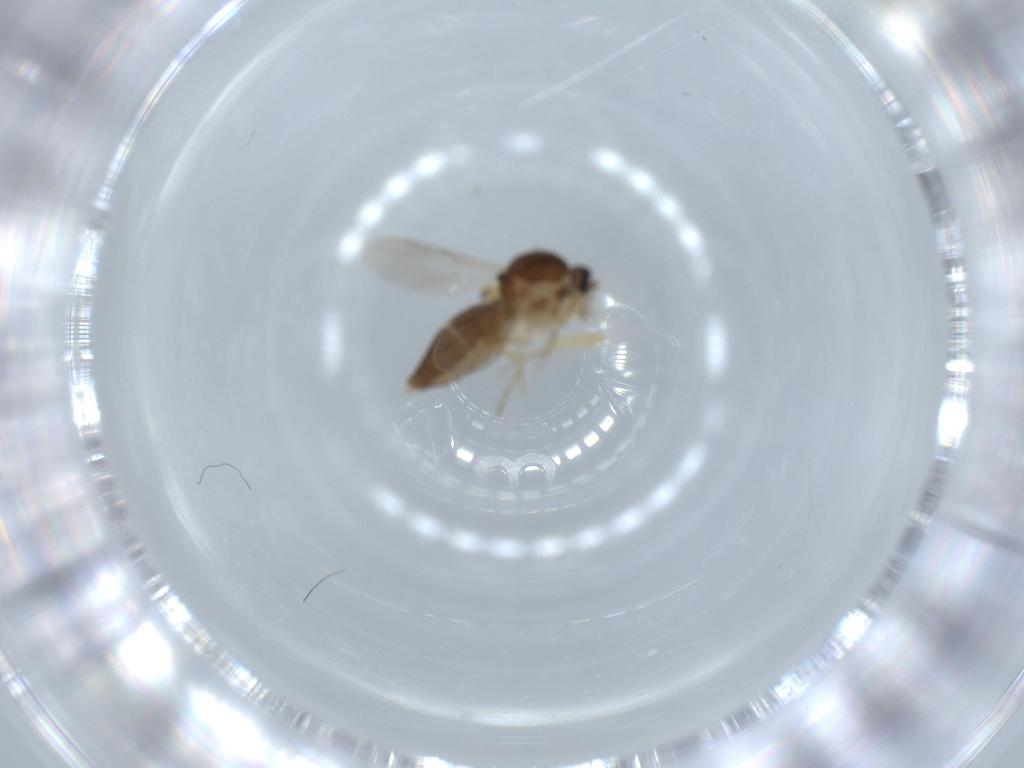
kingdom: Animalia
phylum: Arthropoda
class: Insecta
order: Diptera
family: Ceratopogonidae
